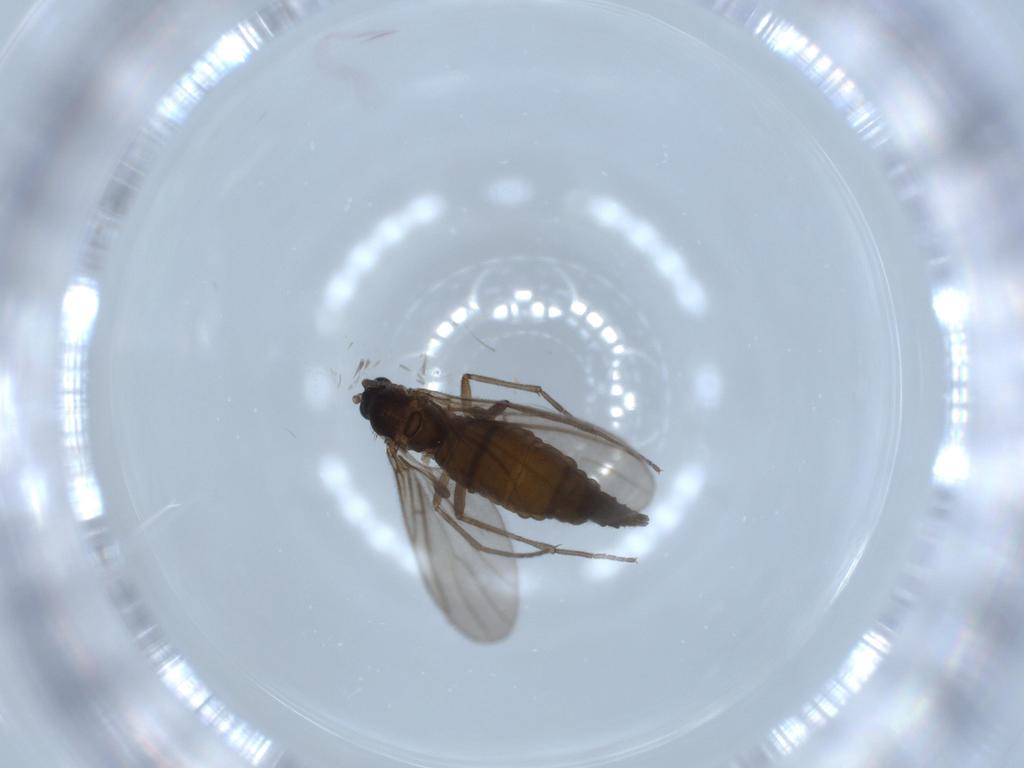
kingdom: Animalia
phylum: Arthropoda
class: Insecta
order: Diptera
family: Sciaridae
